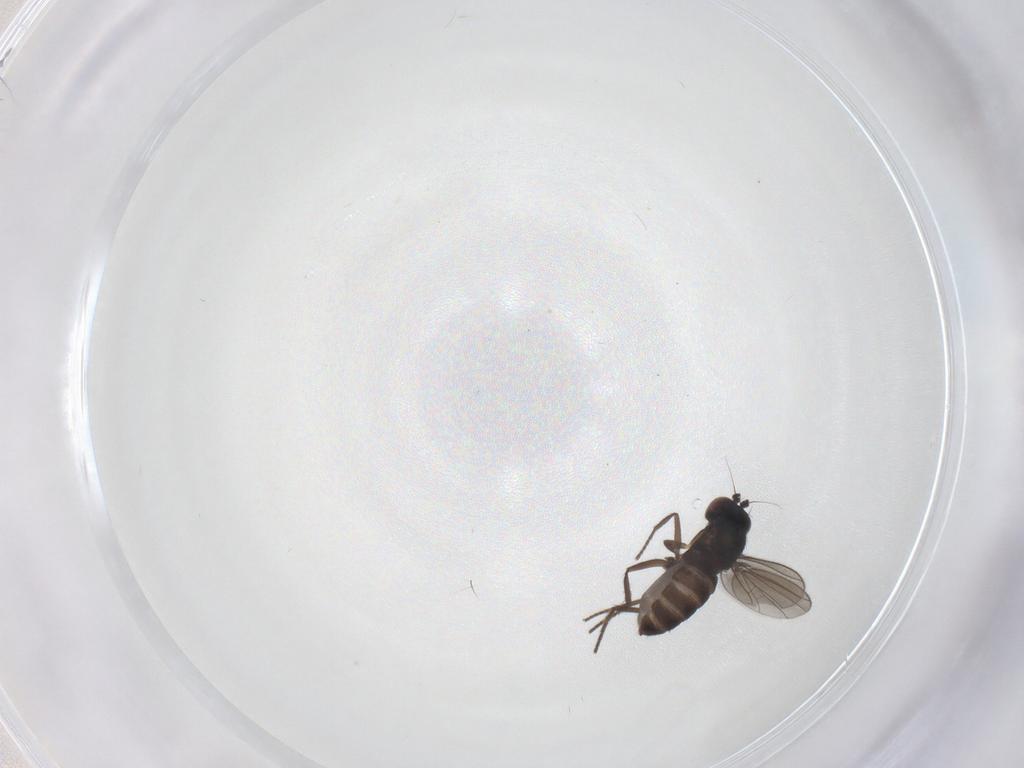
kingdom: Animalia
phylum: Arthropoda
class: Insecta
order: Diptera
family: Dolichopodidae
